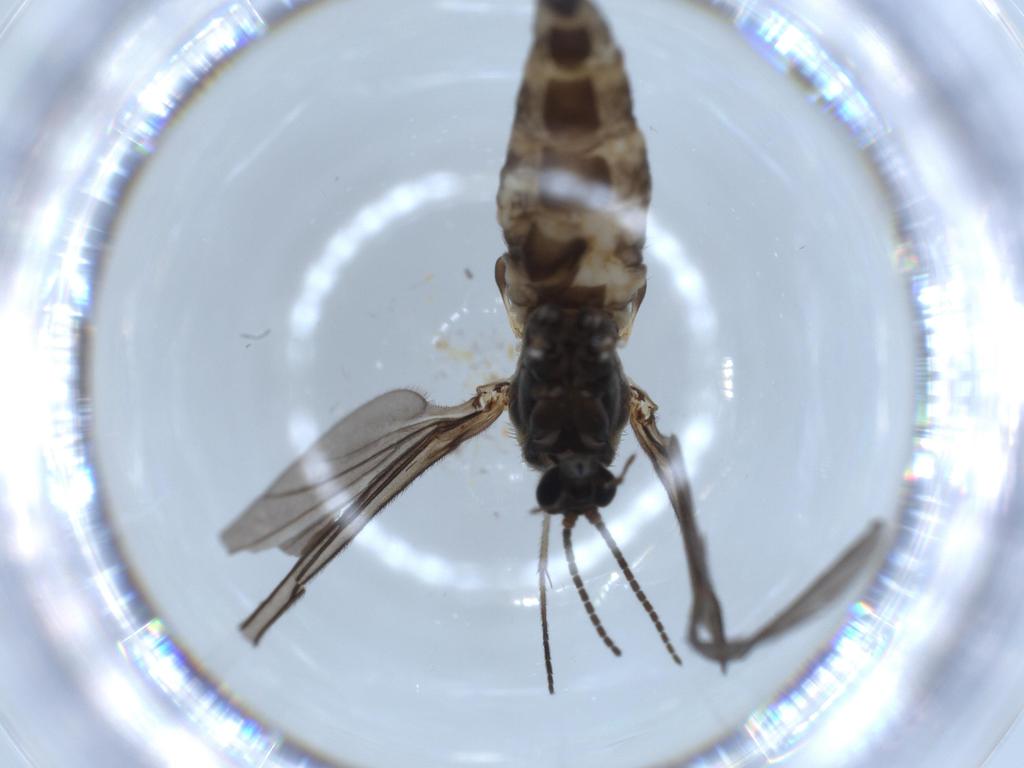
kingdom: Animalia
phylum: Arthropoda
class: Insecta
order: Diptera
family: Sciaridae
